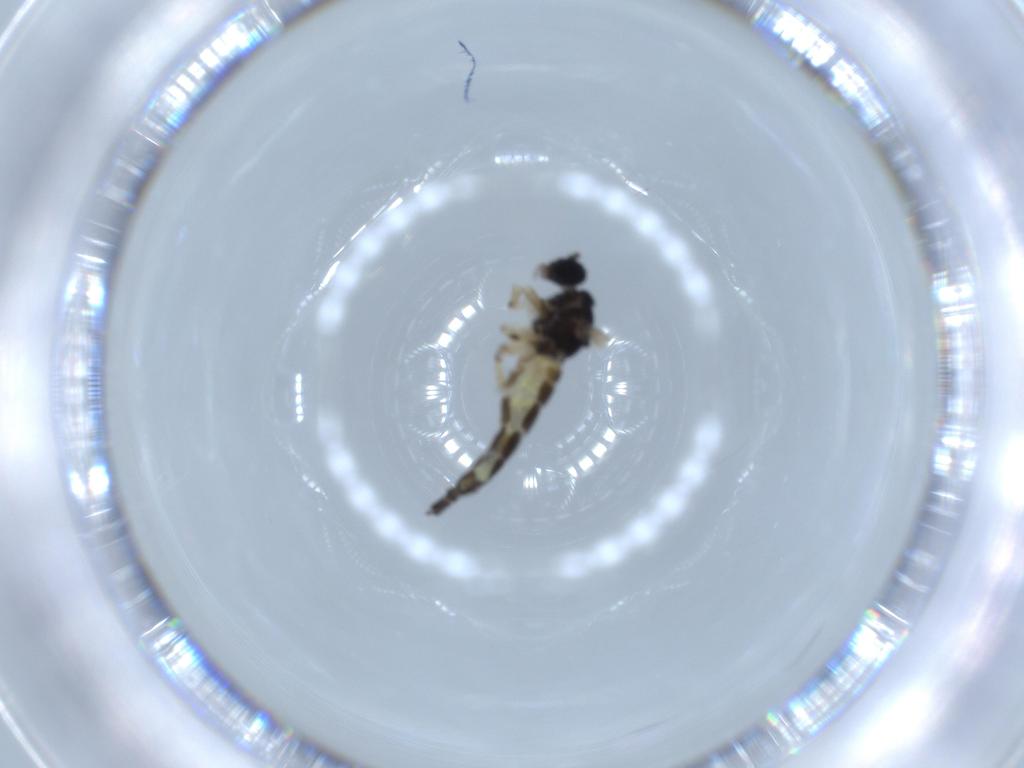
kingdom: Animalia
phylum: Arthropoda
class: Insecta
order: Diptera
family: Sciaridae
